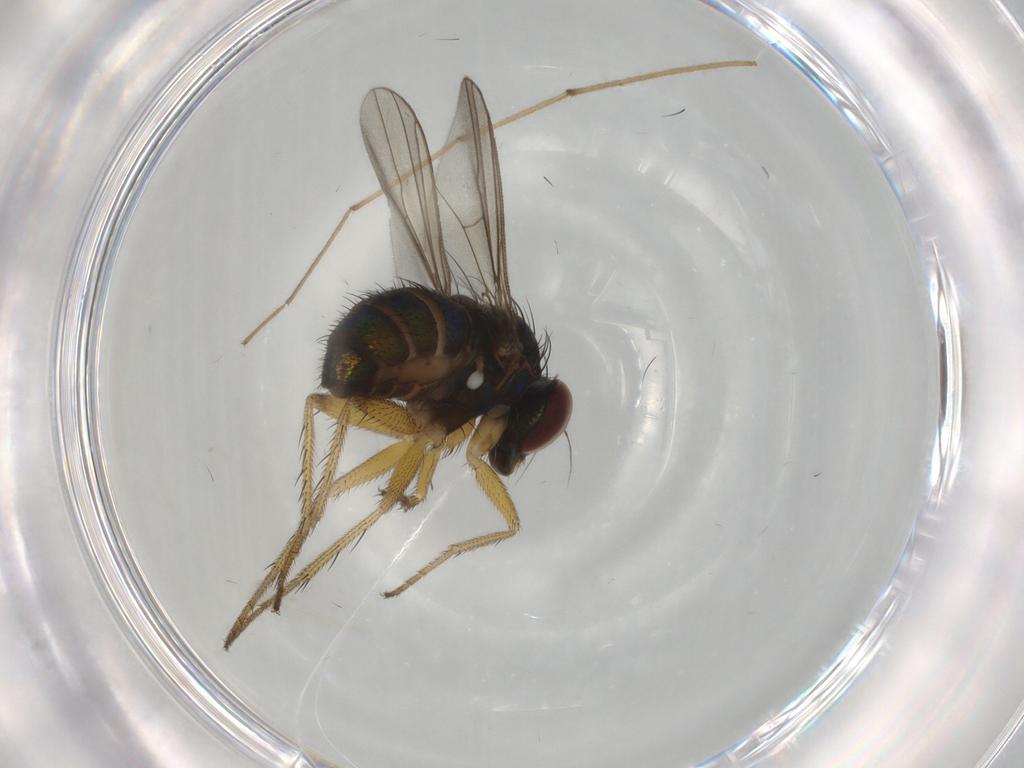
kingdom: Animalia
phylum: Arthropoda
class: Insecta
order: Diptera
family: Dolichopodidae
